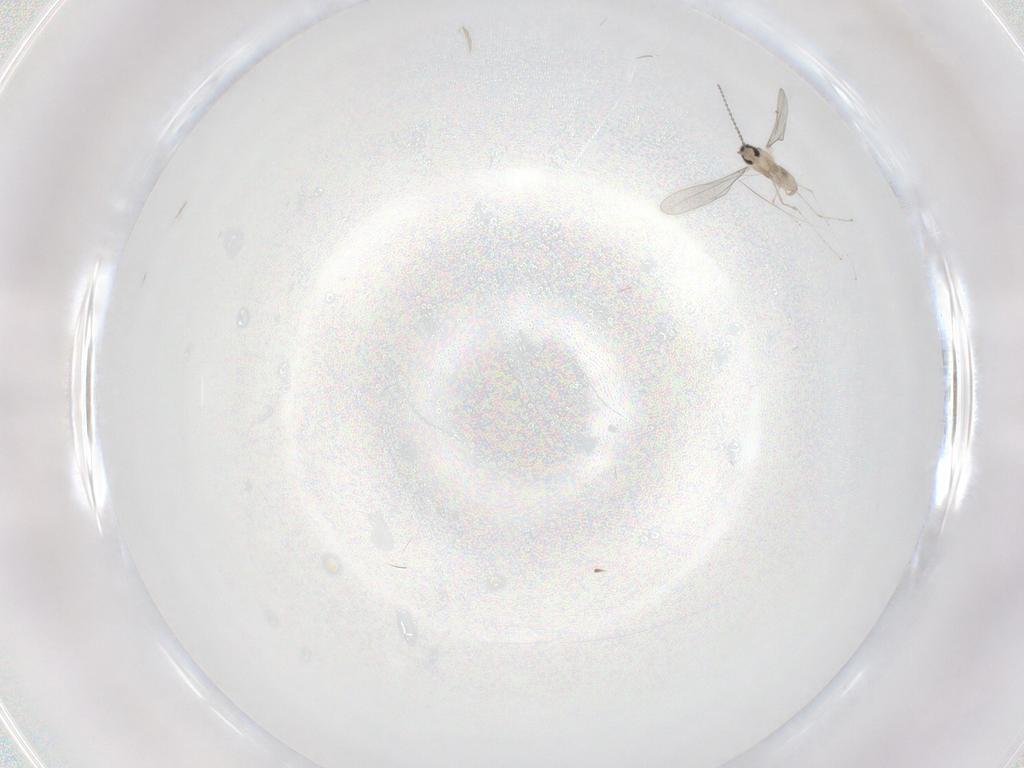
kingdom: Animalia
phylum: Arthropoda
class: Insecta
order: Diptera
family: Cecidomyiidae
